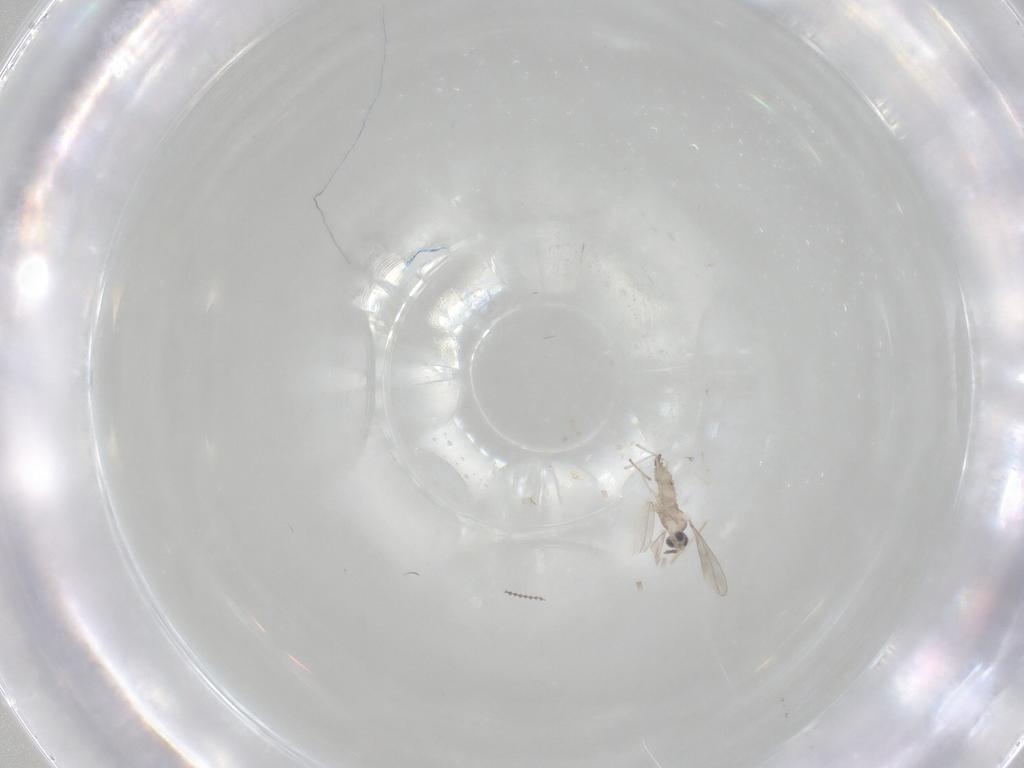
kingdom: Animalia
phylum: Arthropoda
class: Insecta
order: Diptera
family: Cecidomyiidae
